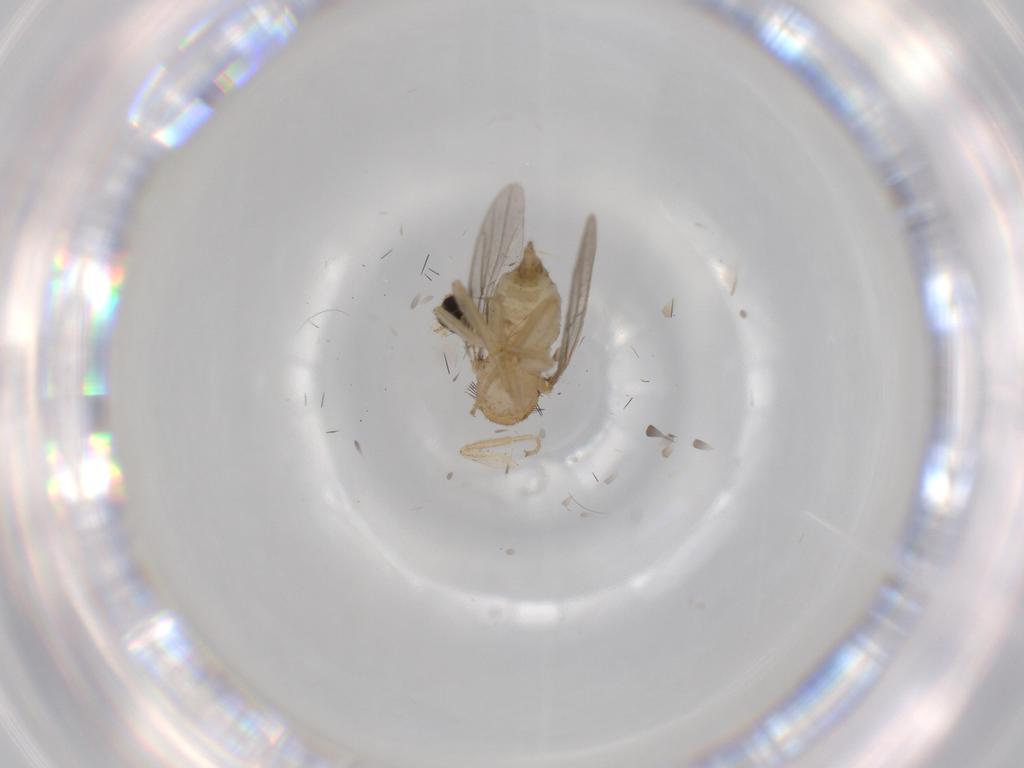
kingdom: Animalia
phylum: Arthropoda
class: Insecta
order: Diptera
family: Hybotidae
